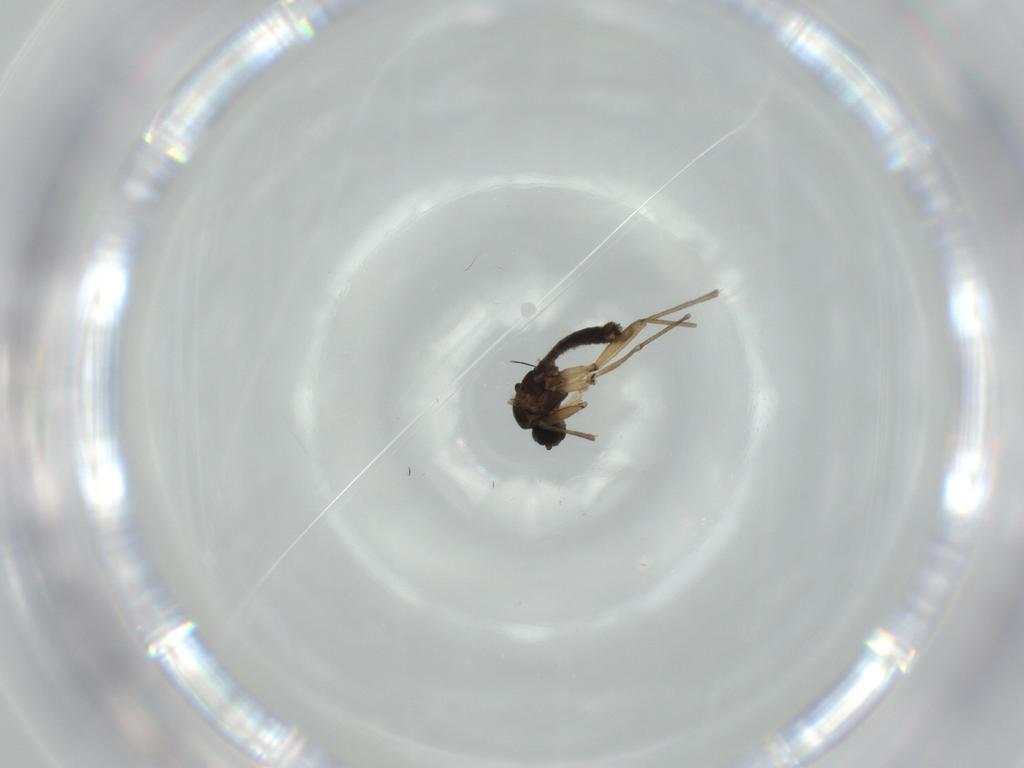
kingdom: Animalia
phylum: Arthropoda
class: Insecta
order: Diptera
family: Sciaridae
